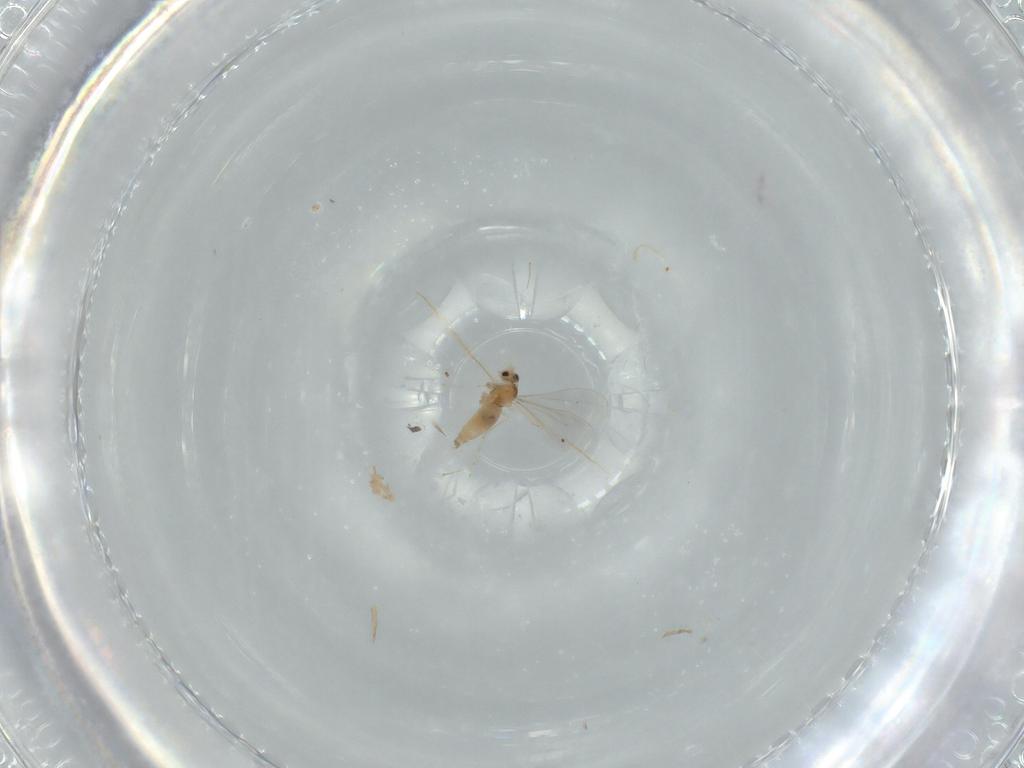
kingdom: Animalia
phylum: Arthropoda
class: Insecta
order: Diptera
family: Cecidomyiidae
